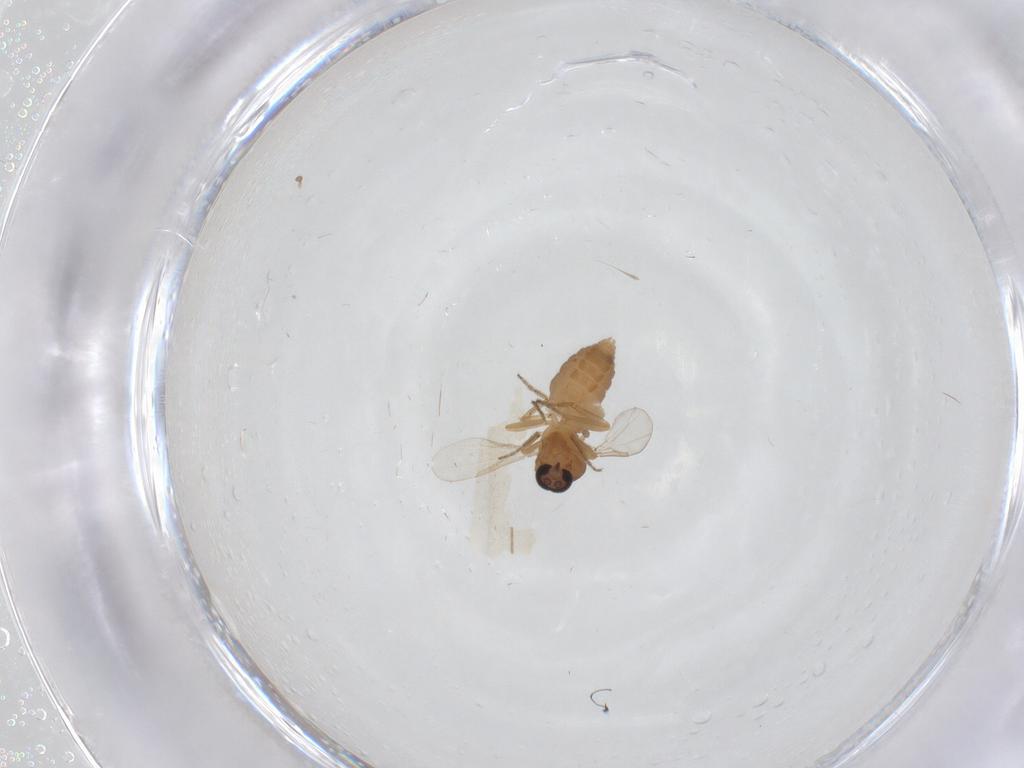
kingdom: Animalia
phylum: Arthropoda
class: Insecta
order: Diptera
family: Ceratopogonidae
